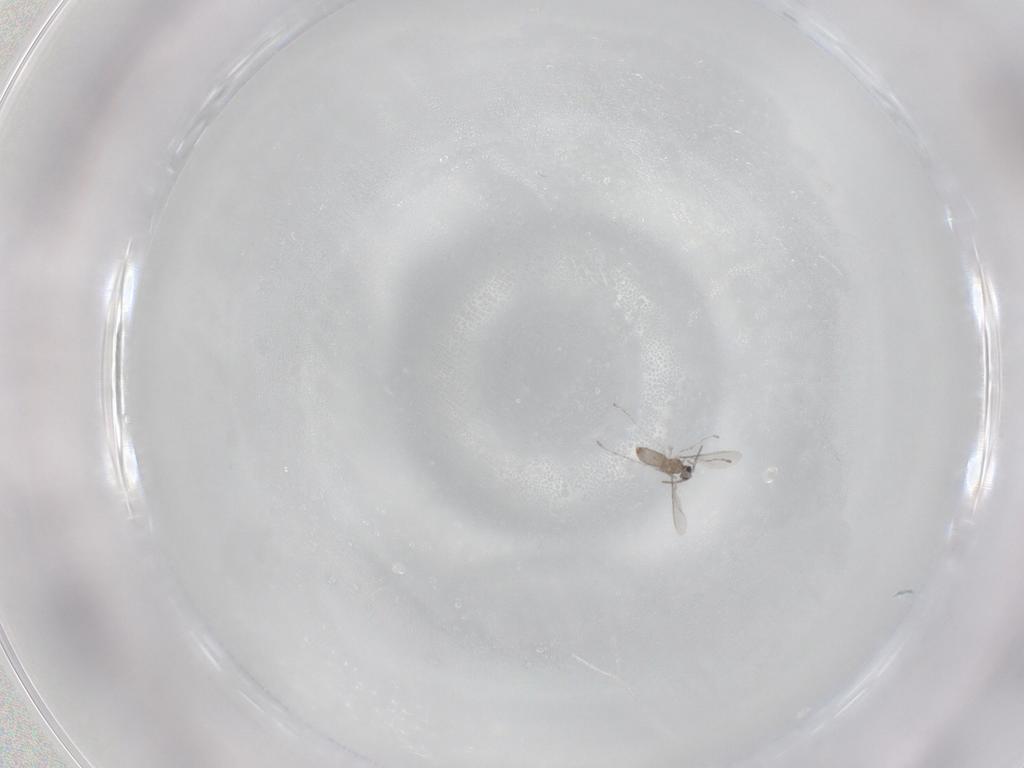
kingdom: Animalia
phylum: Arthropoda
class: Insecta
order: Diptera
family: Cecidomyiidae
